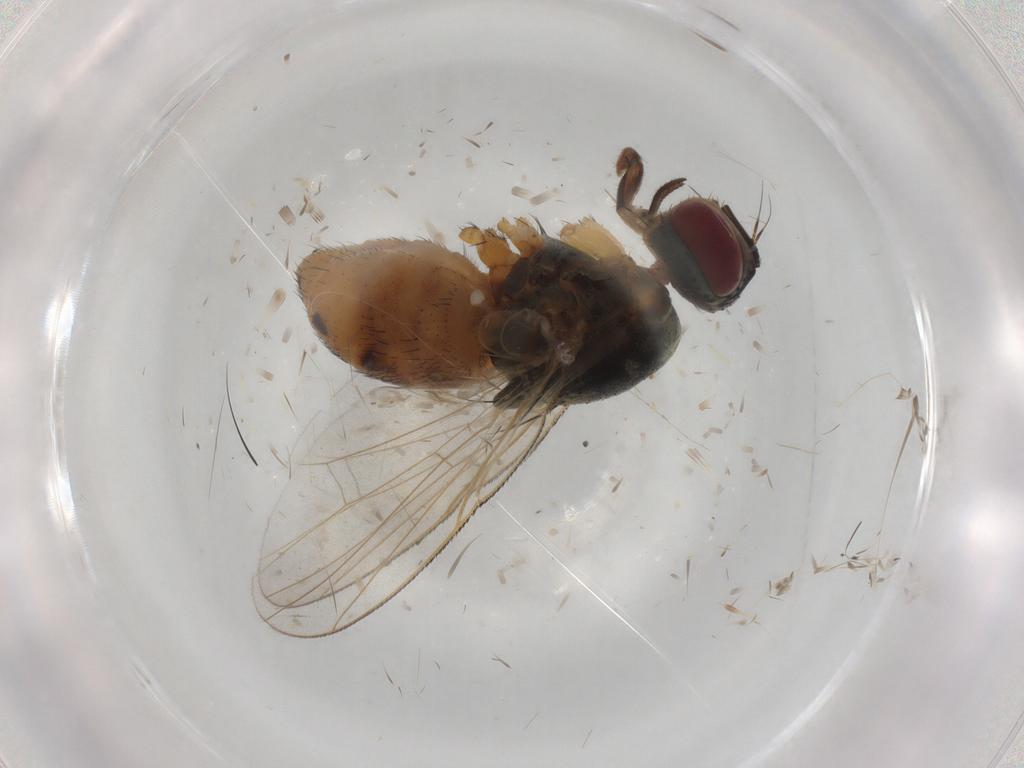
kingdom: Animalia
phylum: Arthropoda
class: Insecta
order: Diptera
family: Muscidae
